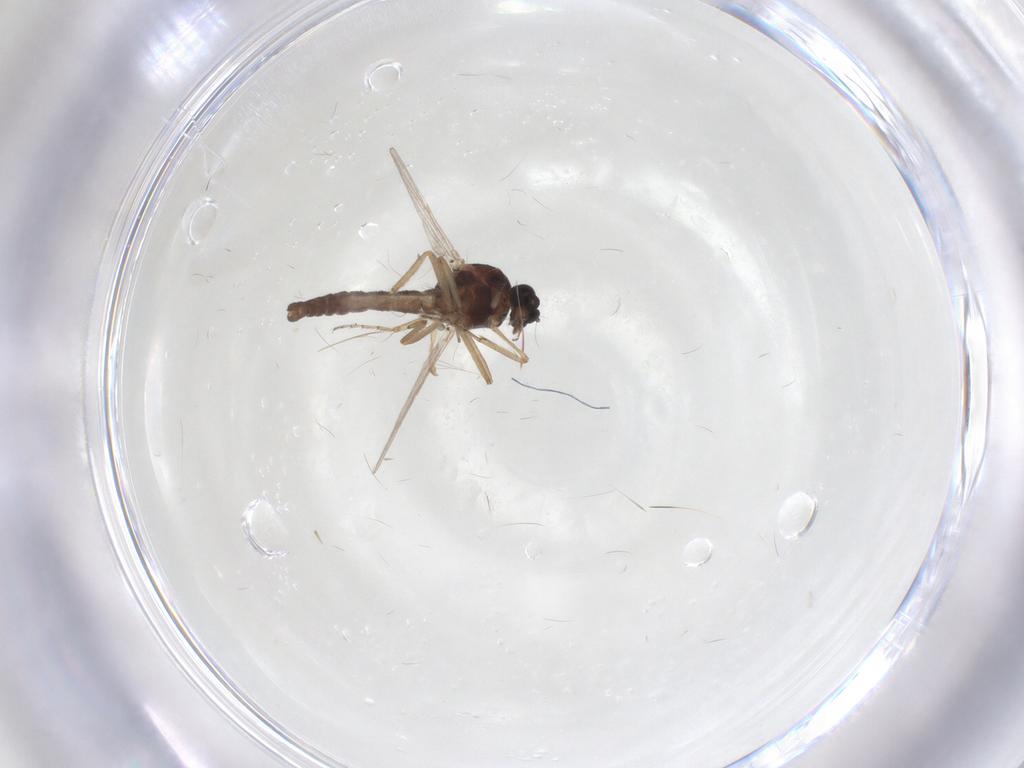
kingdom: Animalia
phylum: Arthropoda
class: Insecta
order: Diptera
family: Ceratopogonidae
